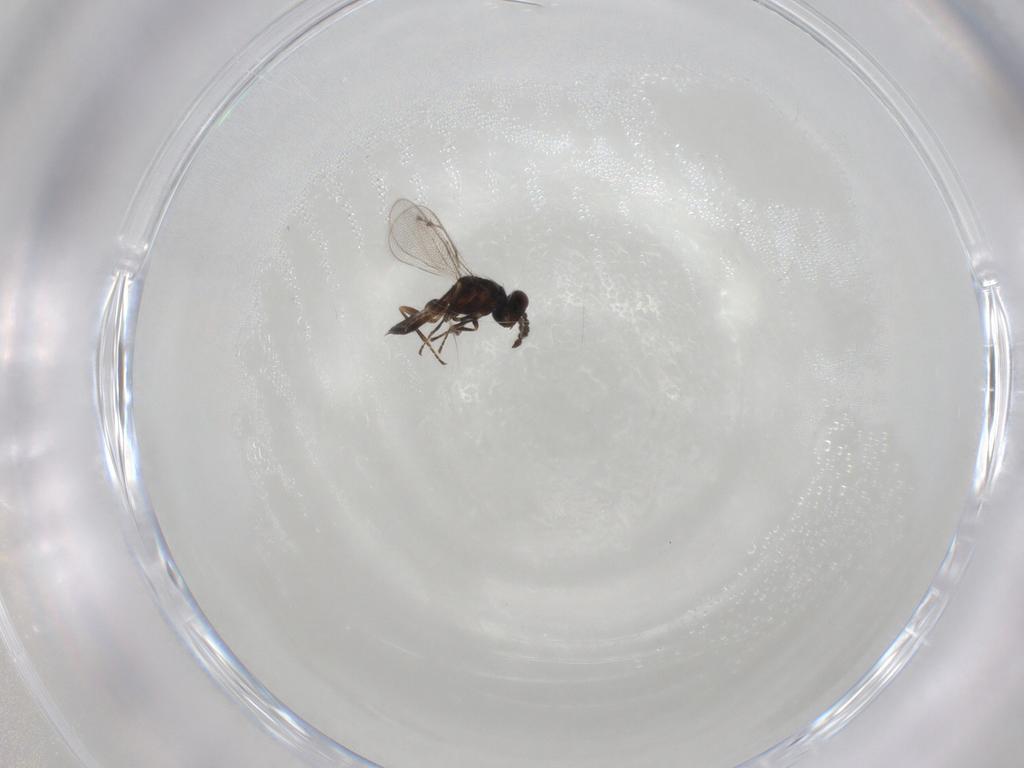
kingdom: Animalia
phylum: Arthropoda
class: Insecta
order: Hymenoptera
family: Eulophidae
